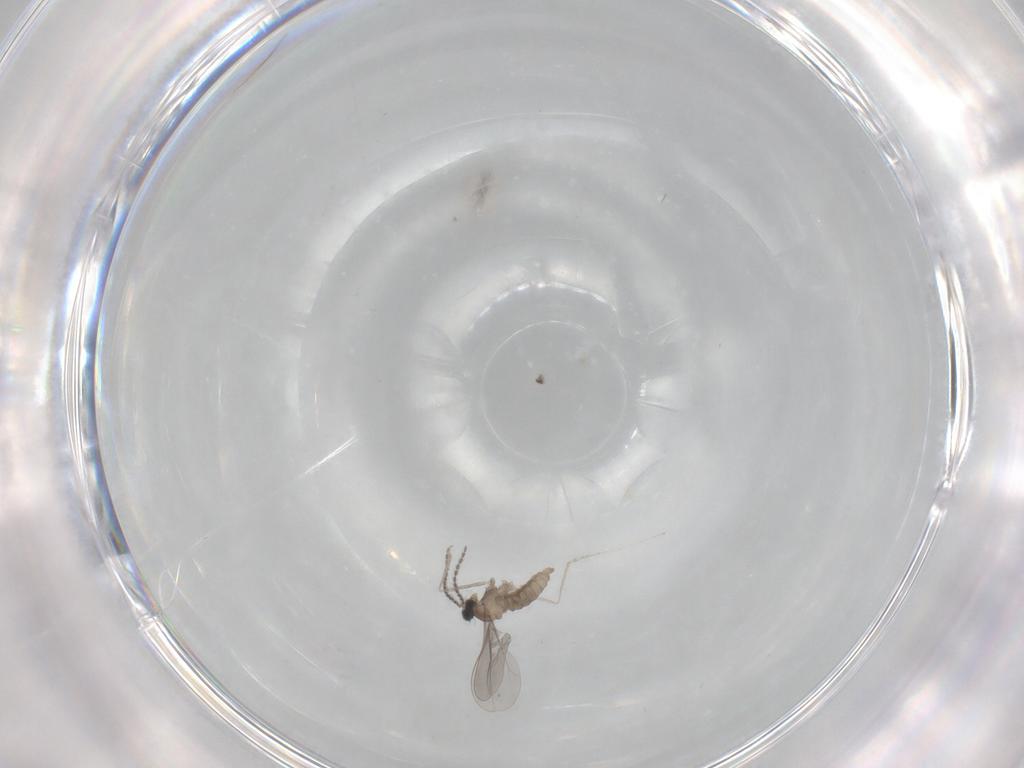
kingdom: Animalia
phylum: Arthropoda
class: Insecta
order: Diptera
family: Cecidomyiidae
